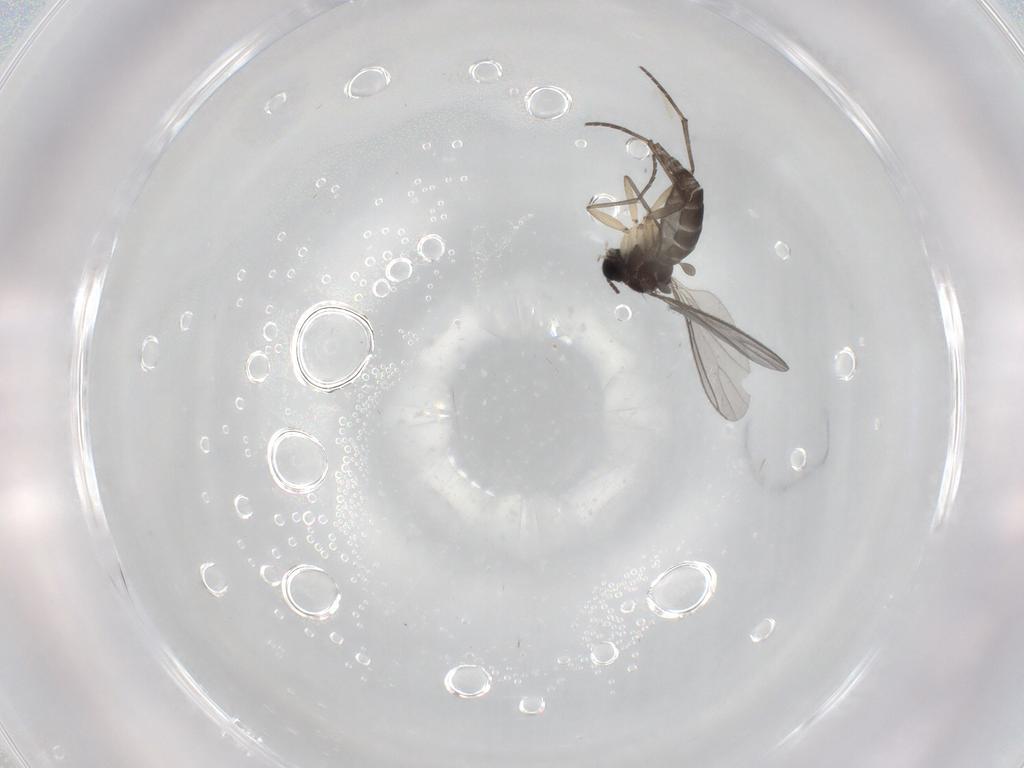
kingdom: Animalia
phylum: Arthropoda
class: Insecta
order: Diptera
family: Sciaridae
